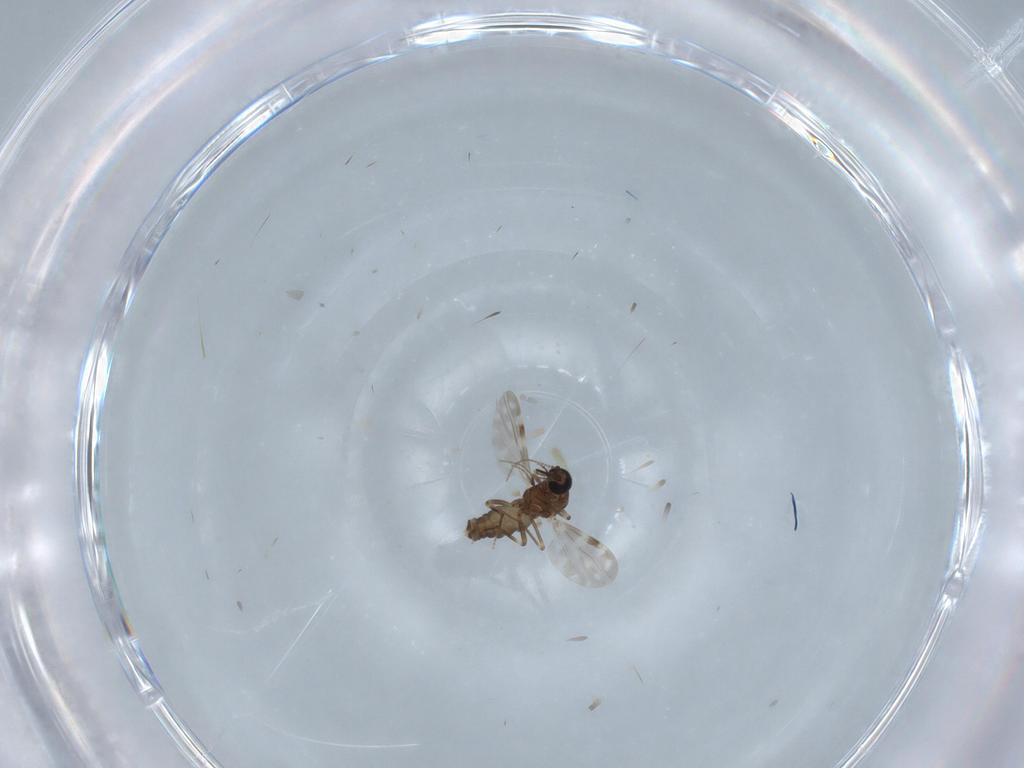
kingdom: Animalia
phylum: Arthropoda
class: Insecta
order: Diptera
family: Ceratopogonidae
